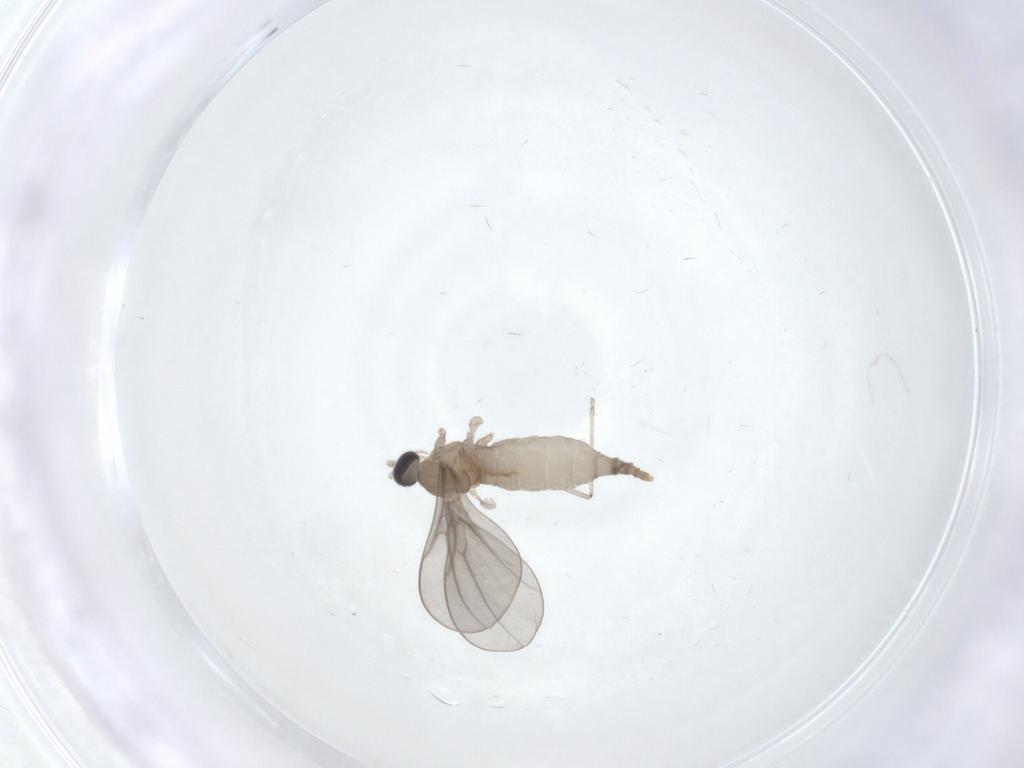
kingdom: Animalia
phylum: Arthropoda
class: Insecta
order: Diptera
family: Cecidomyiidae
